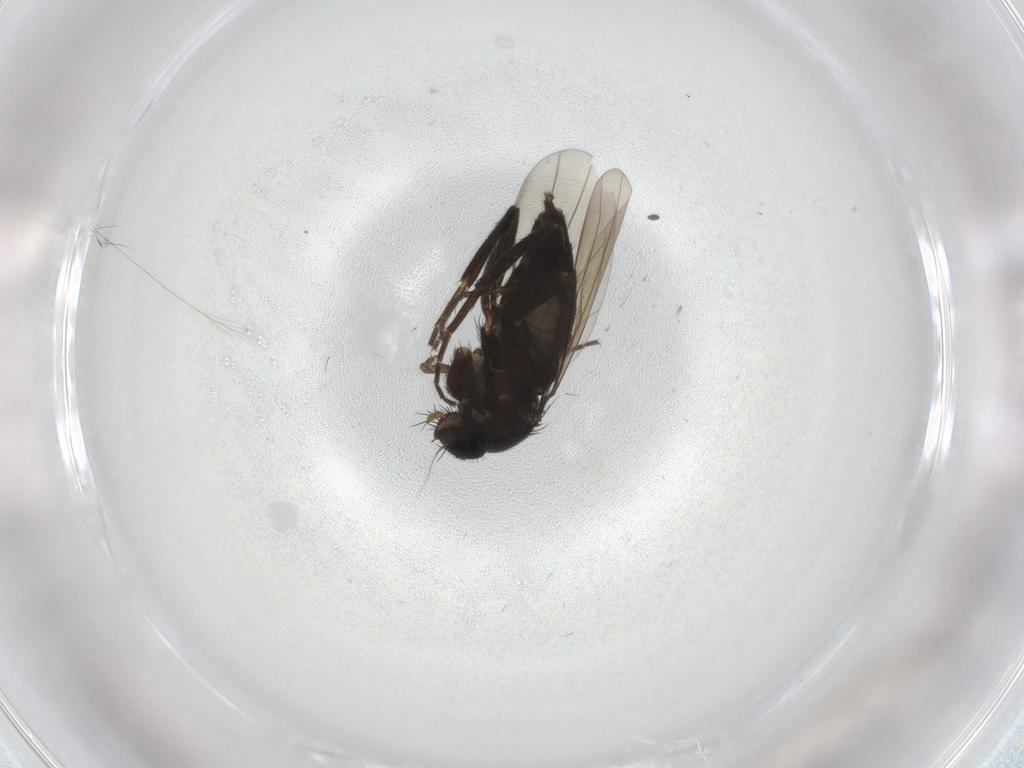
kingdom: Animalia
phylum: Arthropoda
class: Insecta
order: Diptera
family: Phoridae
